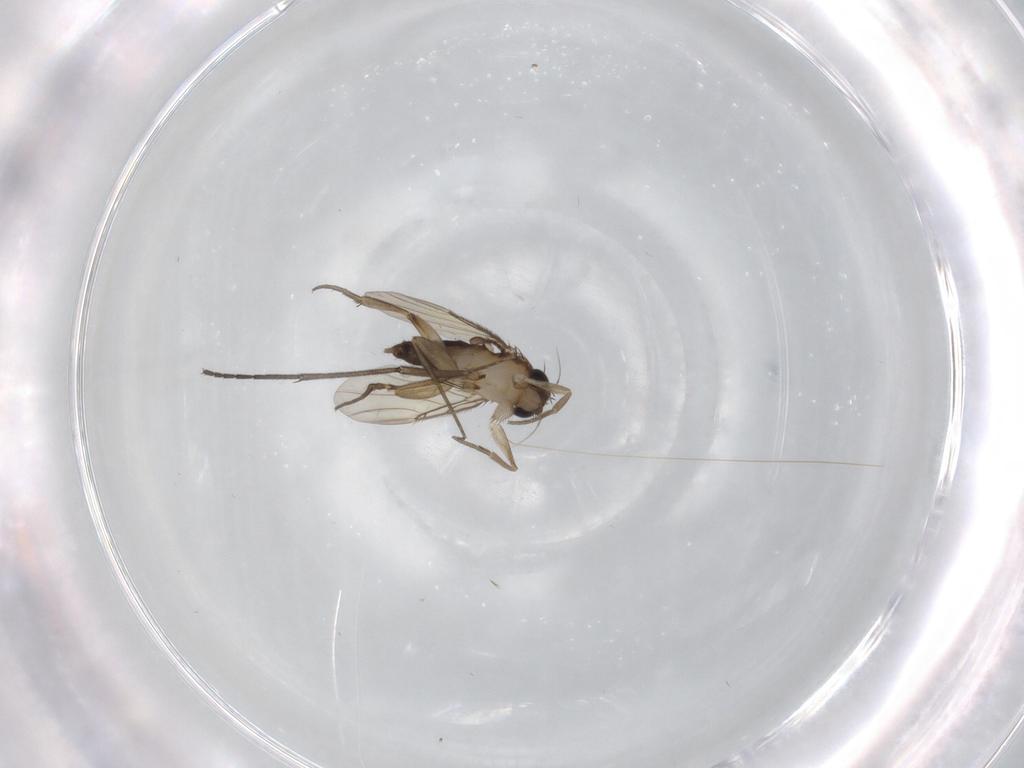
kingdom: Animalia
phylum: Arthropoda
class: Insecta
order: Diptera
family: Phoridae
